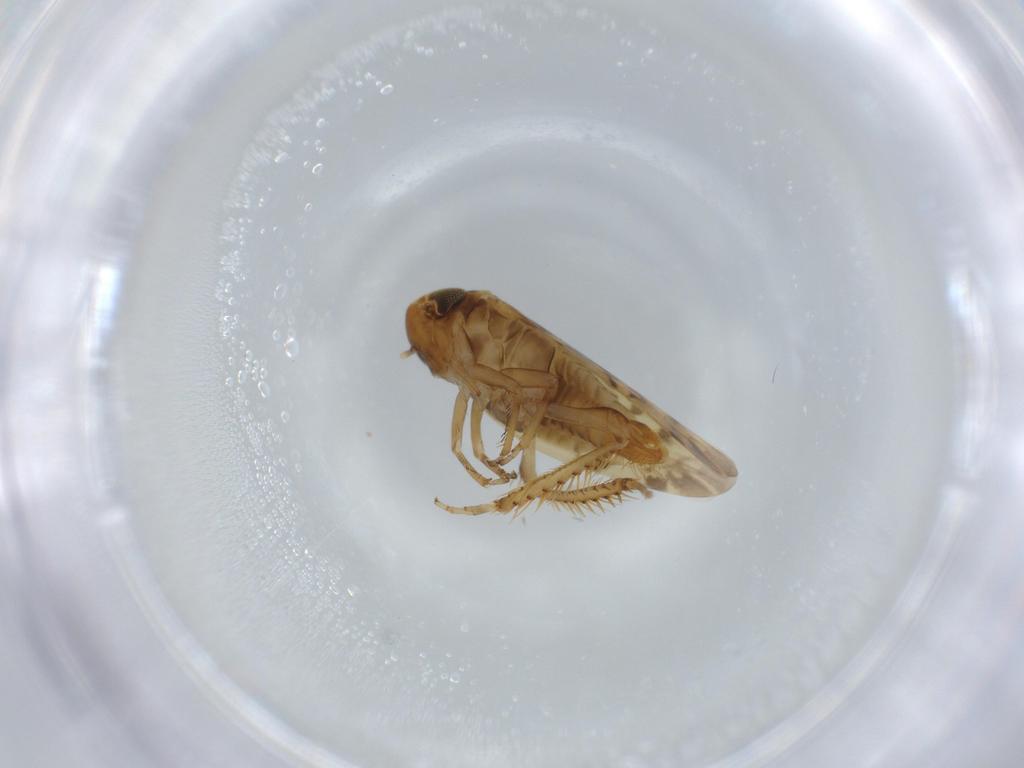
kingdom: Animalia
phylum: Arthropoda
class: Insecta
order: Hemiptera
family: Cicadellidae
